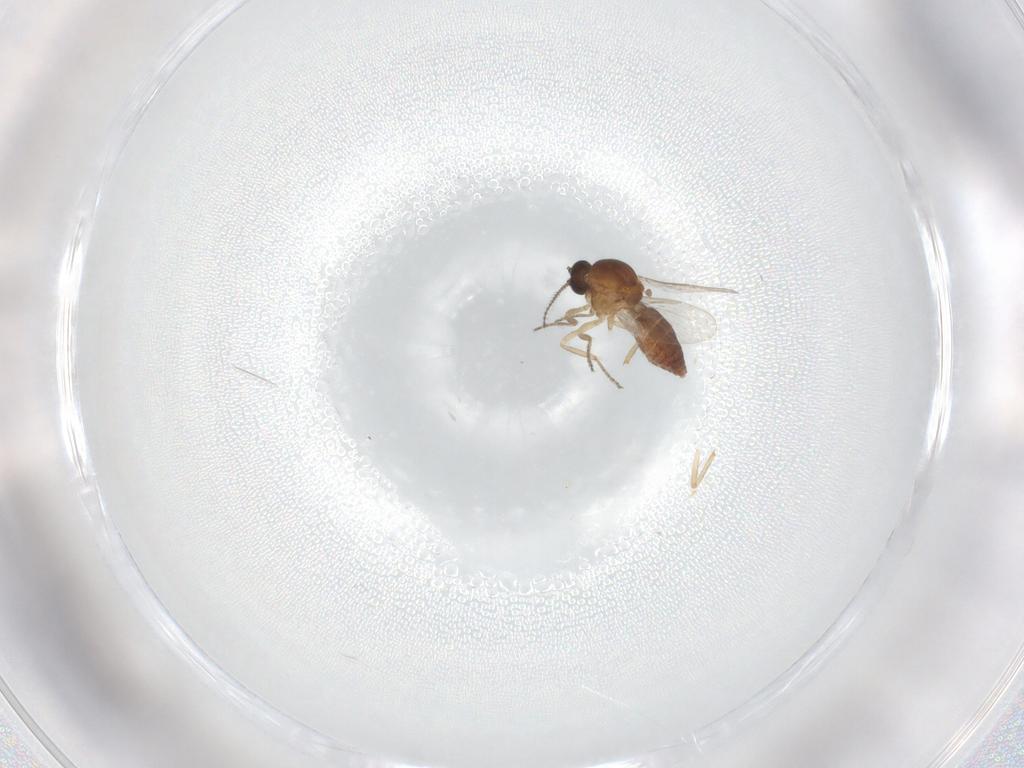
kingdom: Animalia
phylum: Arthropoda
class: Insecta
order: Diptera
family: Ceratopogonidae
